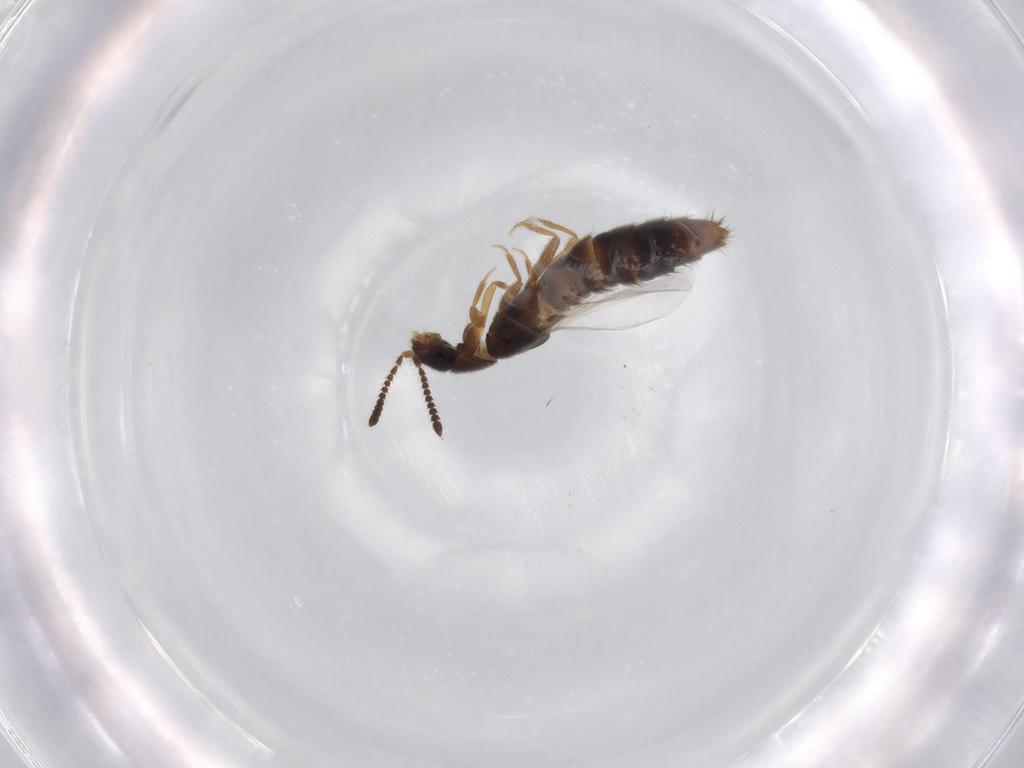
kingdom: Animalia
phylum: Arthropoda
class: Insecta
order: Coleoptera
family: Staphylinidae
